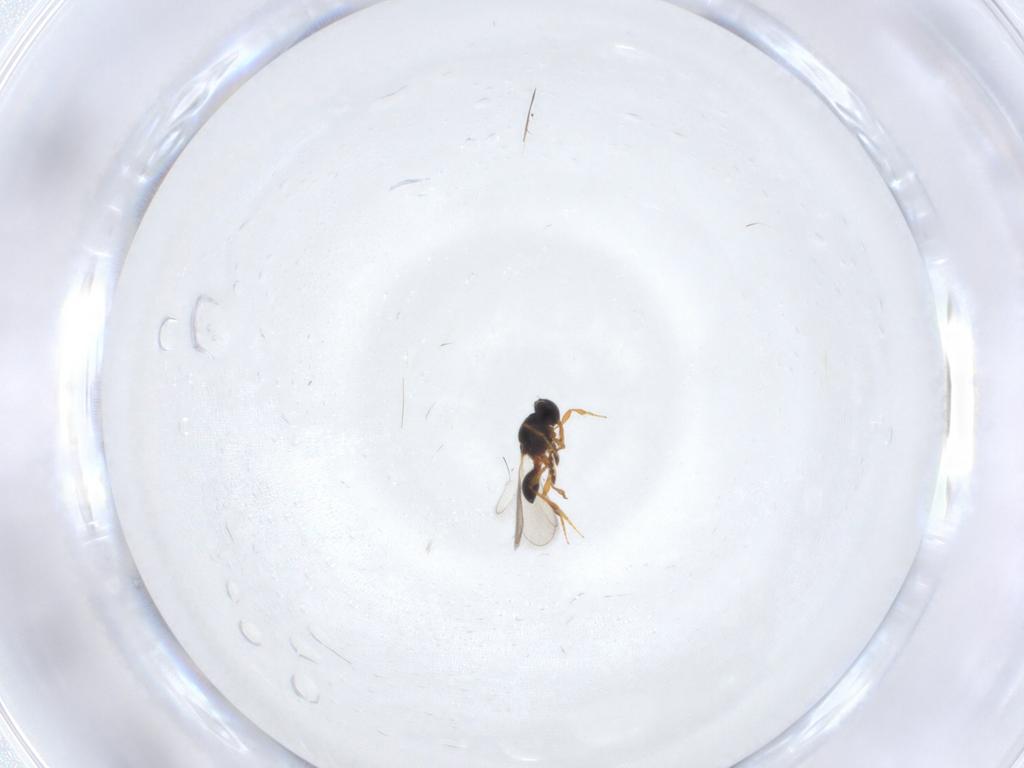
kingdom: Animalia
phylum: Arthropoda
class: Insecta
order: Hymenoptera
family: Platygastridae
